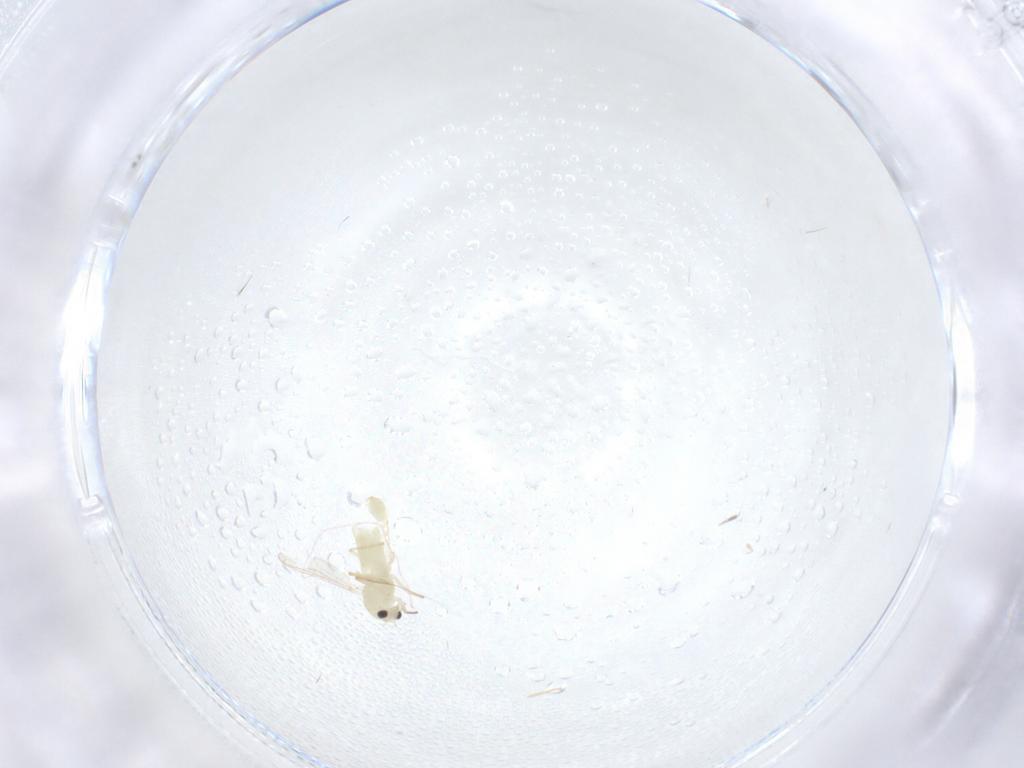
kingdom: Animalia
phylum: Arthropoda
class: Insecta
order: Diptera
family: Chironomidae
